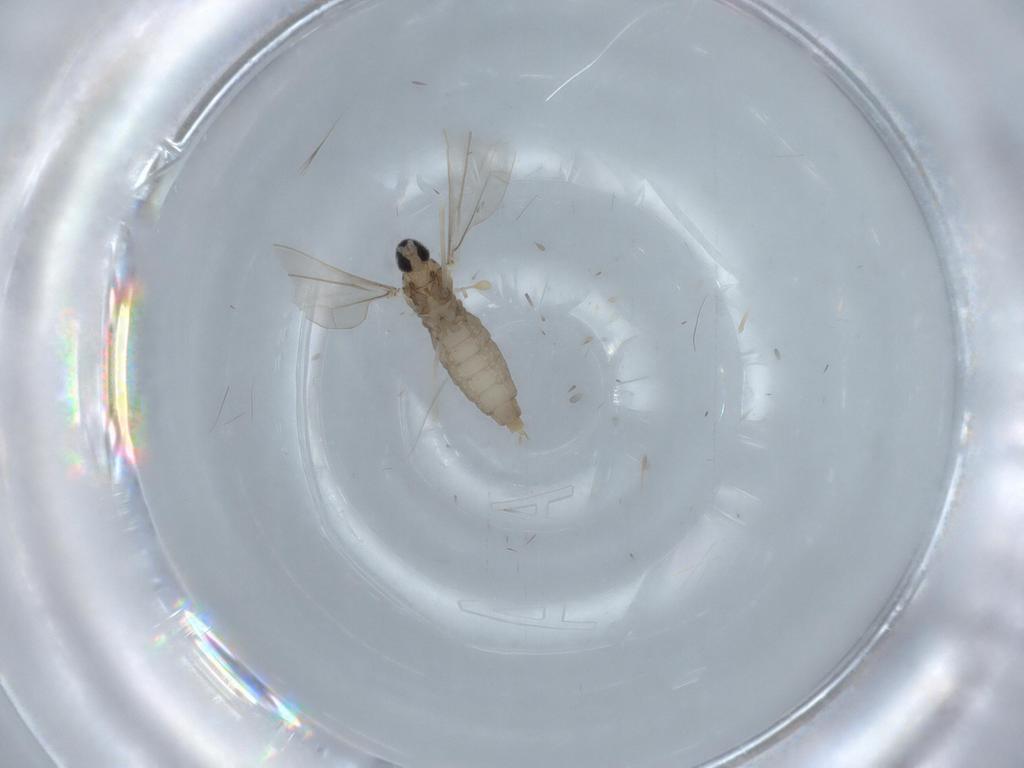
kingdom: Animalia
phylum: Arthropoda
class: Insecta
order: Diptera
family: Cecidomyiidae
